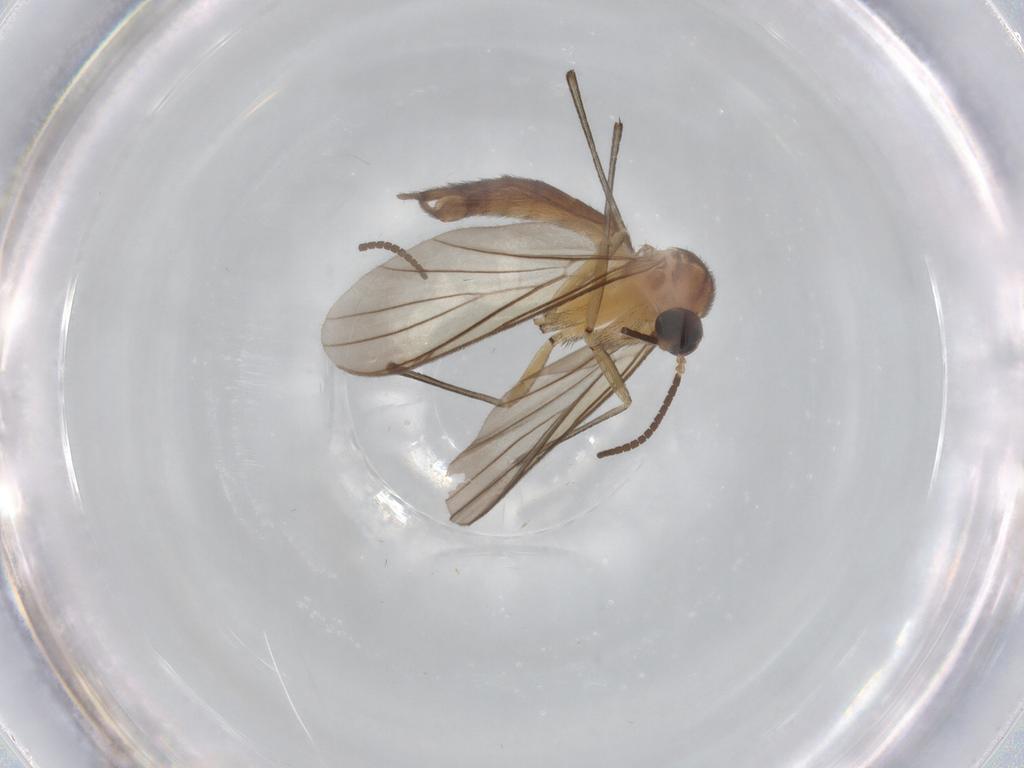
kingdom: Animalia
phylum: Arthropoda
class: Insecta
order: Diptera
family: Keroplatidae
